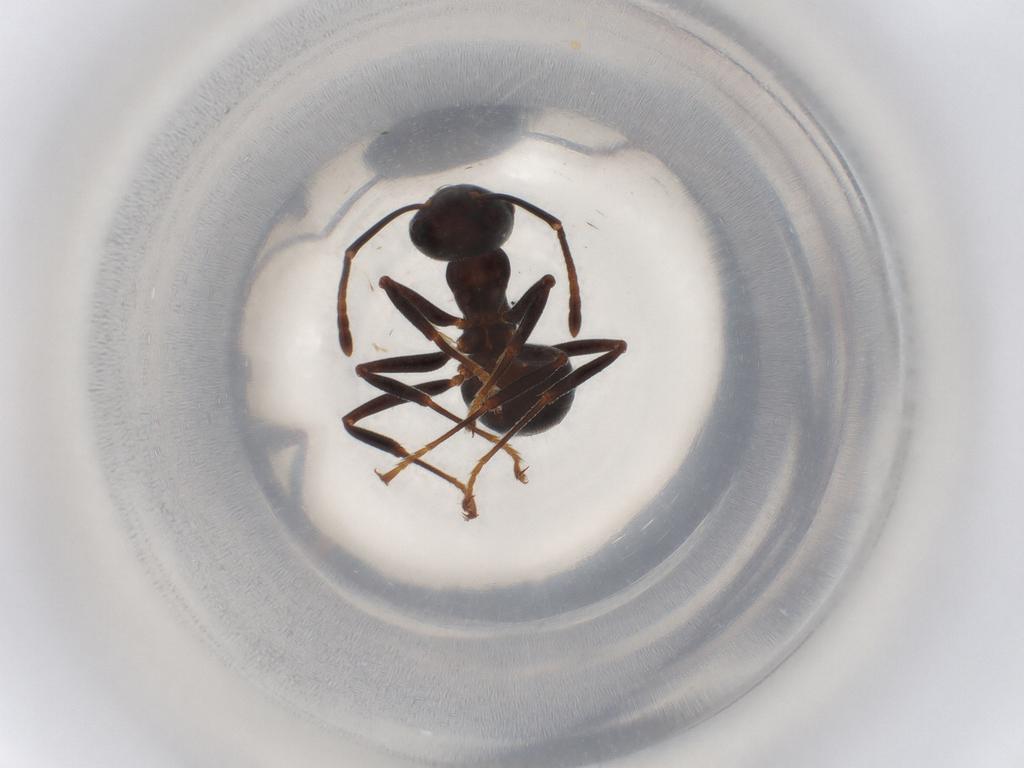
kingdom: Animalia
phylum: Arthropoda
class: Insecta
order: Hymenoptera
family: Formicidae
